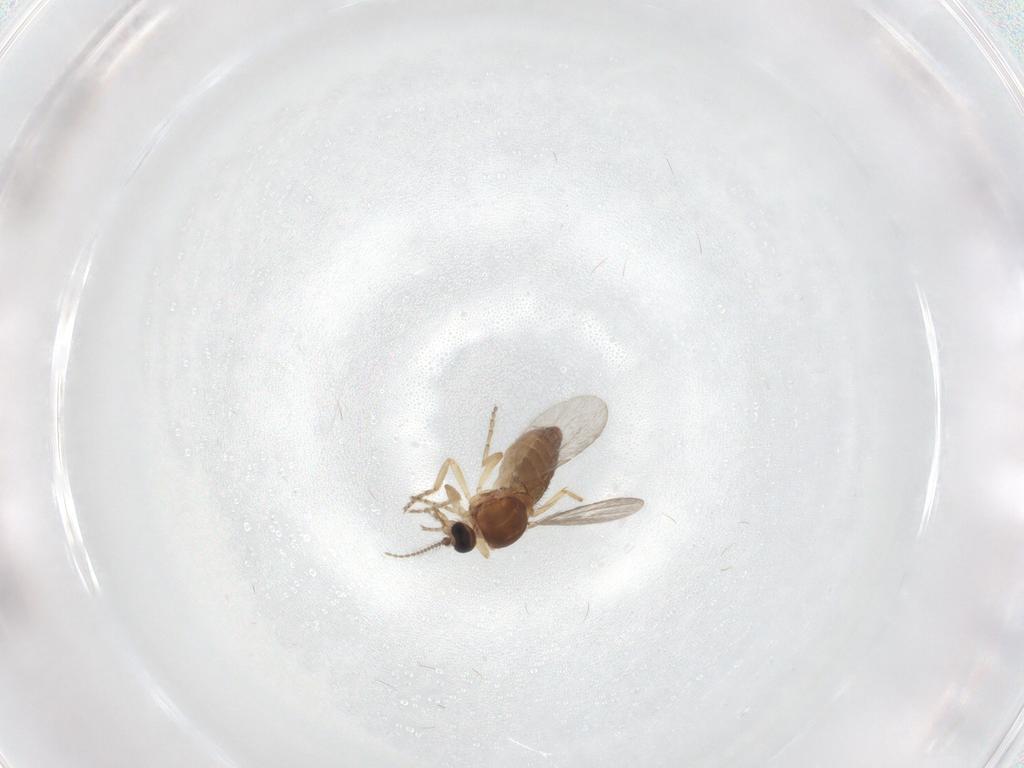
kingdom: Animalia
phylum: Arthropoda
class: Insecta
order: Diptera
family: Ceratopogonidae
